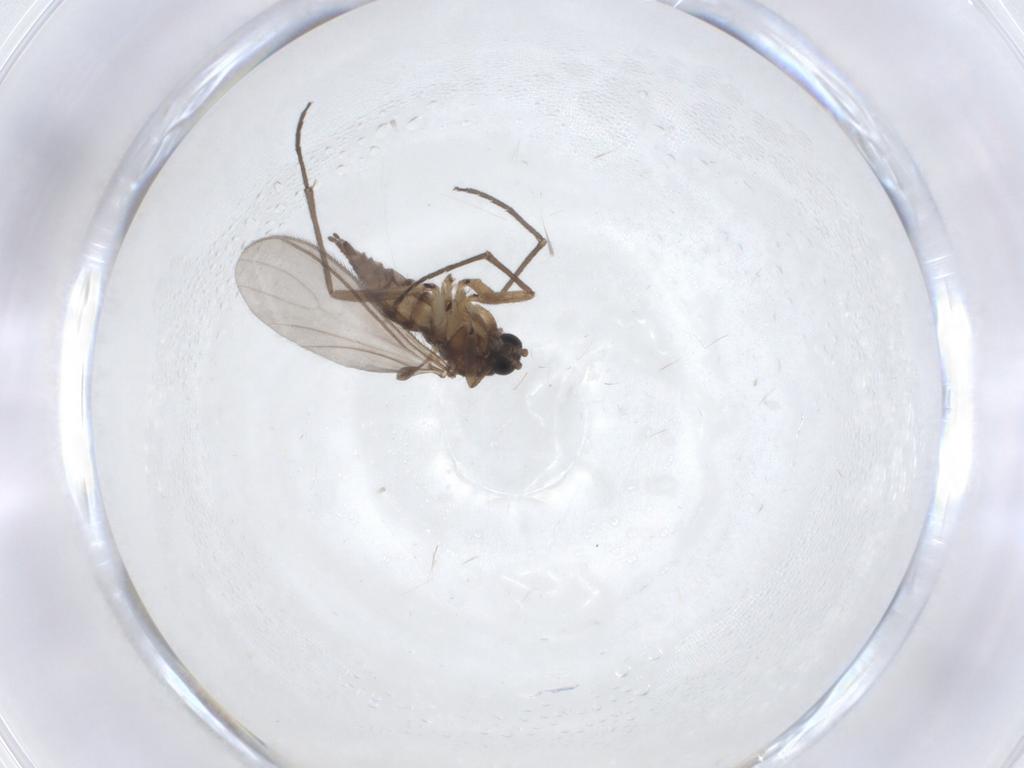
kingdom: Animalia
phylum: Arthropoda
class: Insecta
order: Diptera
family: Sciaridae
